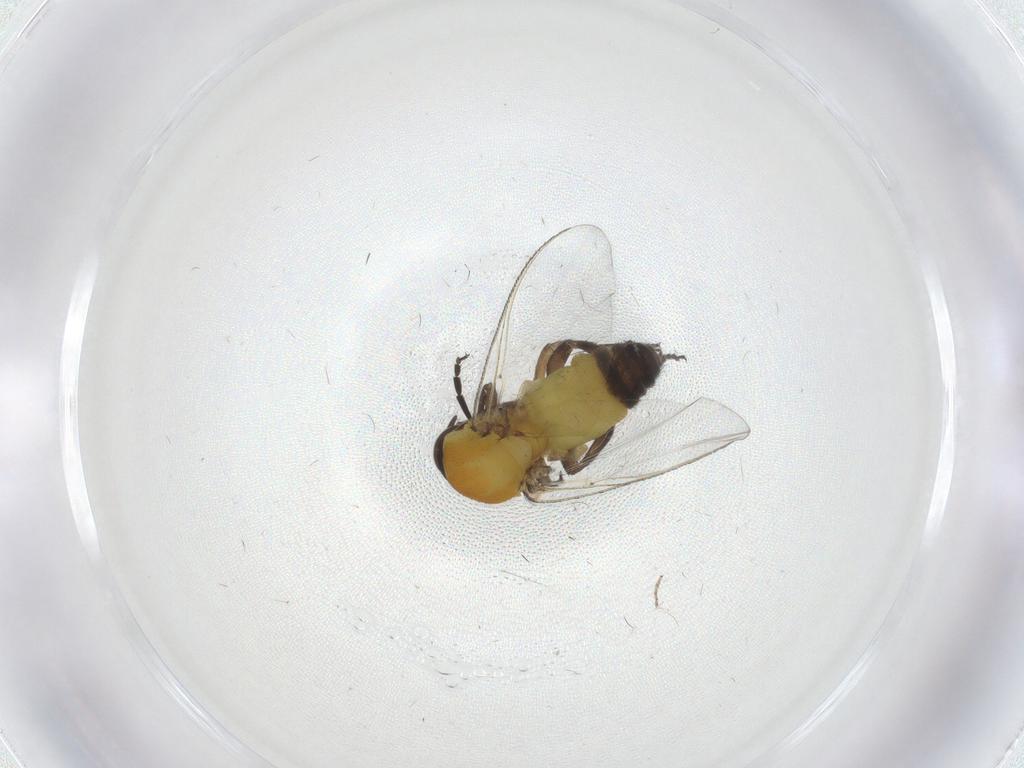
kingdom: Animalia
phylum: Arthropoda
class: Insecta
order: Diptera
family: Ceratopogonidae
